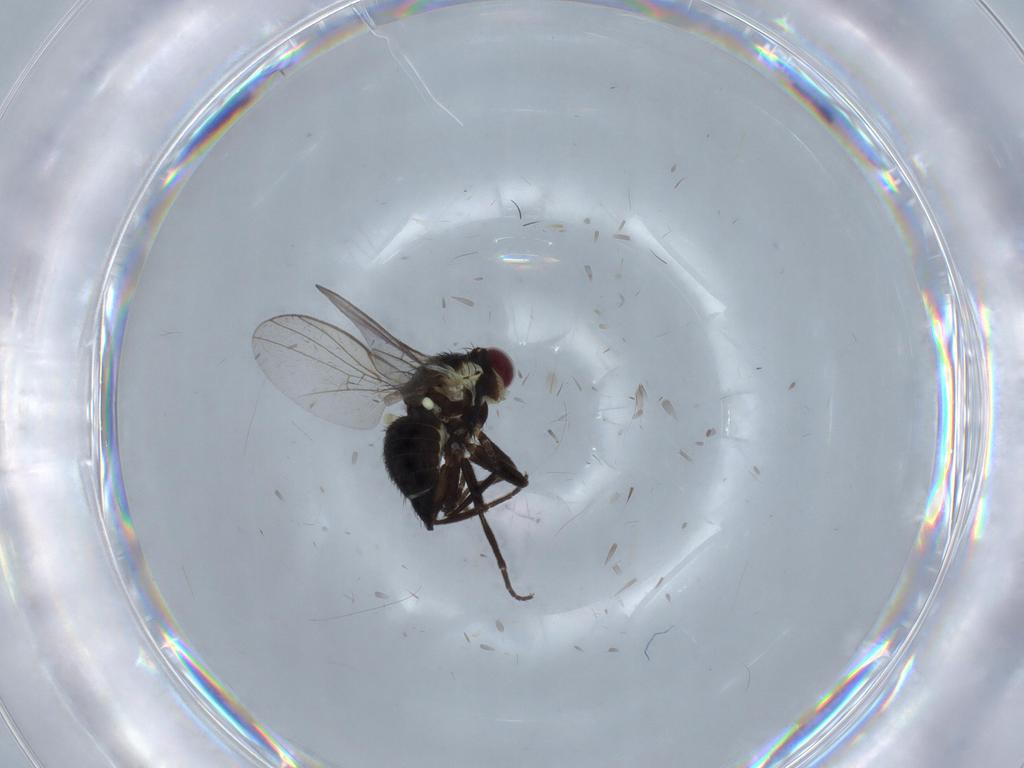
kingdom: Animalia
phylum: Arthropoda
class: Insecta
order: Diptera
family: Agromyzidae
